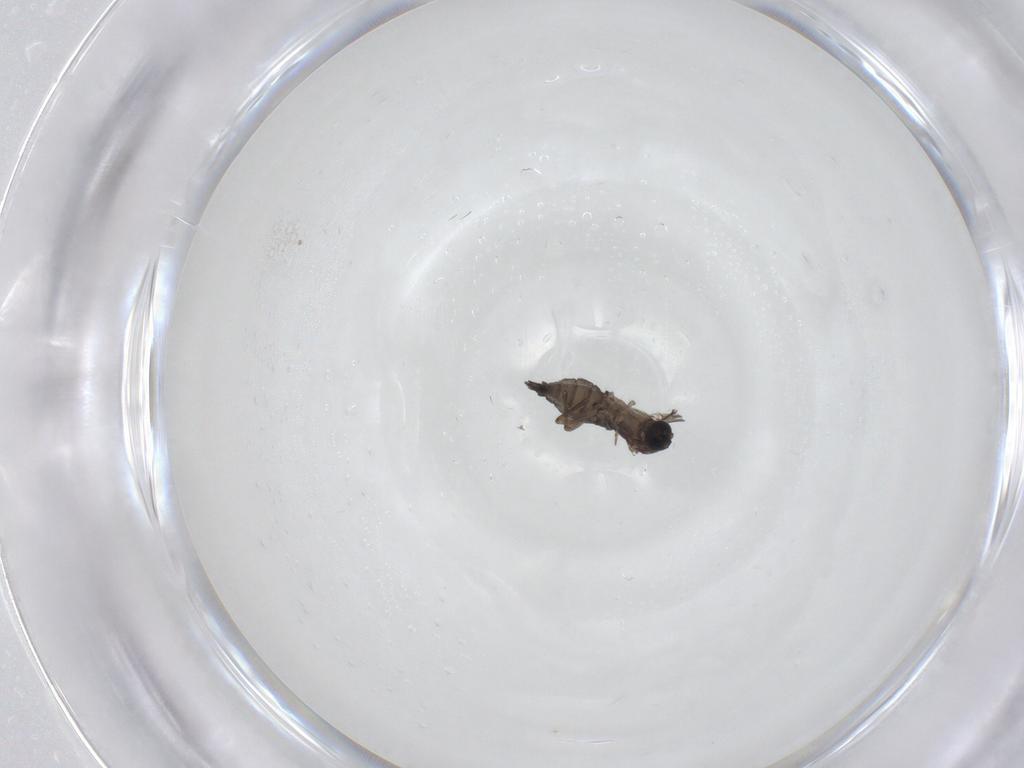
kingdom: Animalia
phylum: Arthropoda
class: Insecta
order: Diptera
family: Sciaridae
